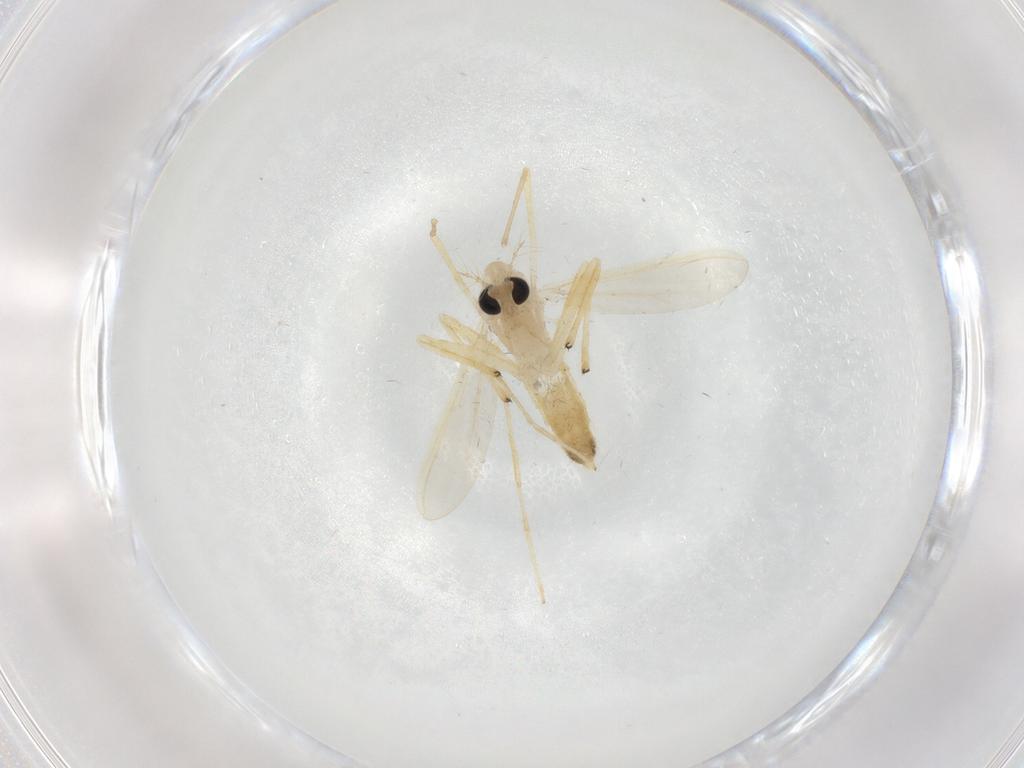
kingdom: Animalia
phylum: Arthropoda
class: Insecta
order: Diptera
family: Chironomidae
